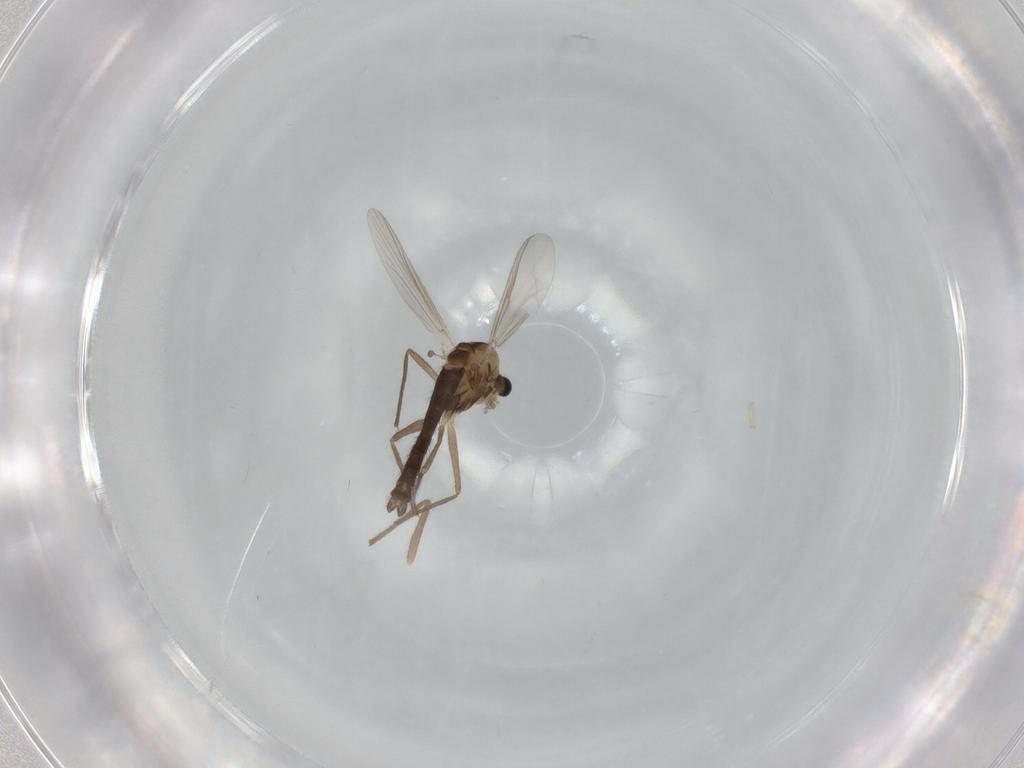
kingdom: Animalia
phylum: Arthropoda
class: Insecta
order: Diptera
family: Chironomidae
